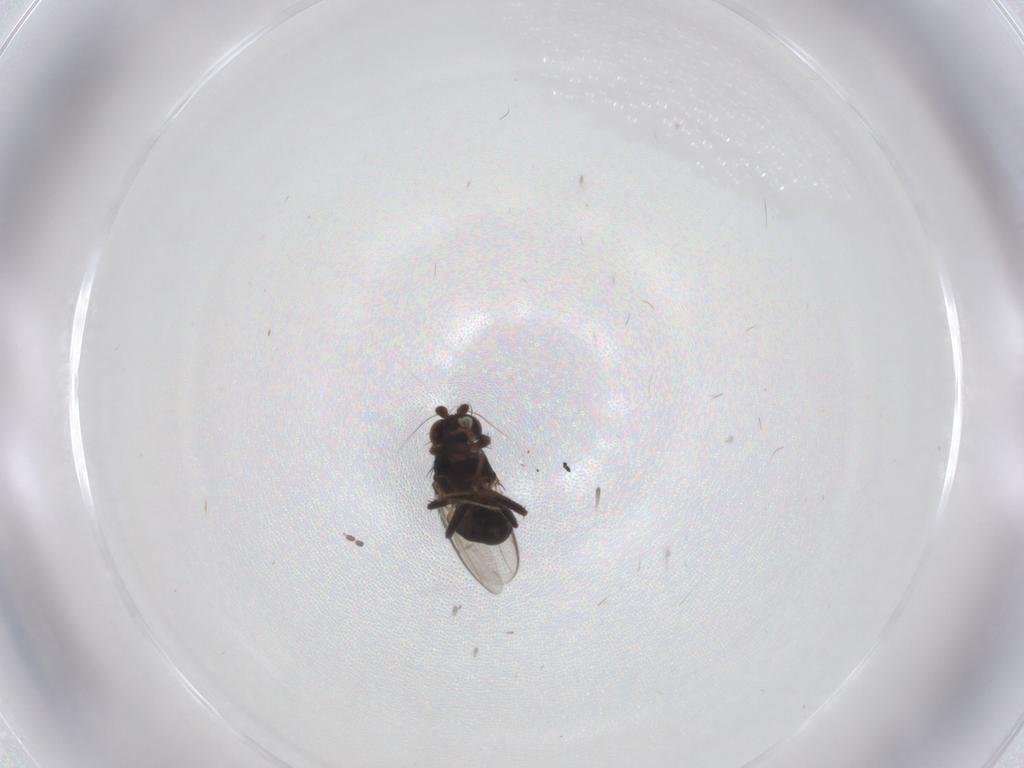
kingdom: Animalia
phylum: Arthropoda
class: Insecta
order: Diptera
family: Sphaeroceridae
